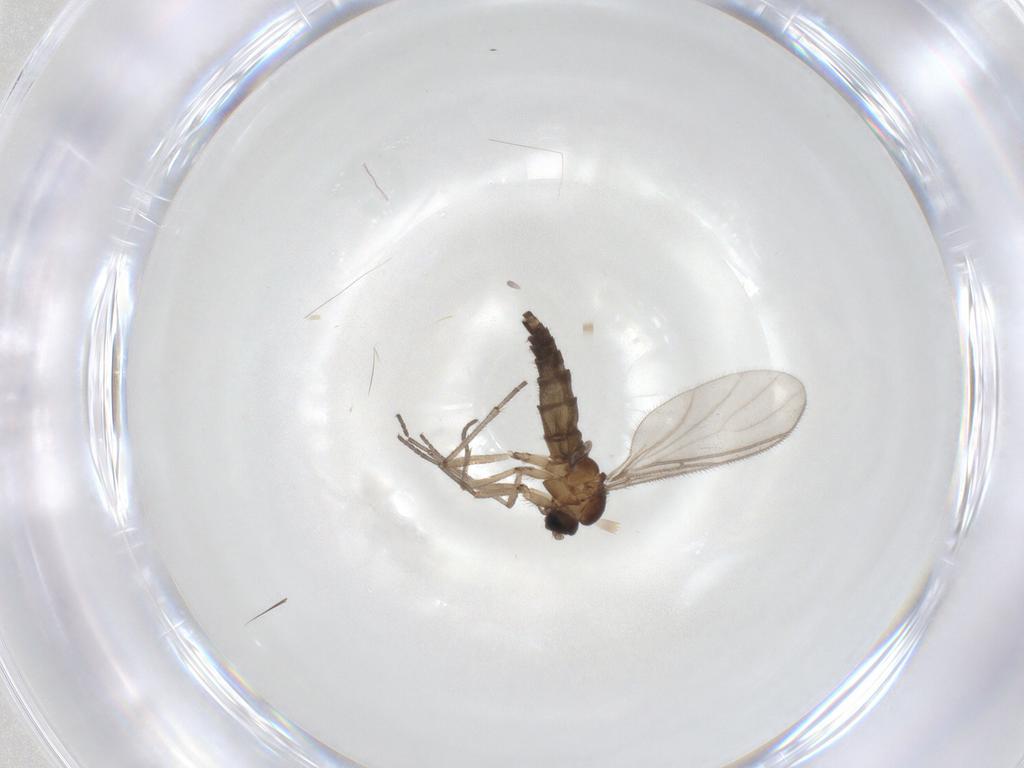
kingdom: Animalia
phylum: Arthropoda
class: Insecta
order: Diptera
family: Sciaridae
